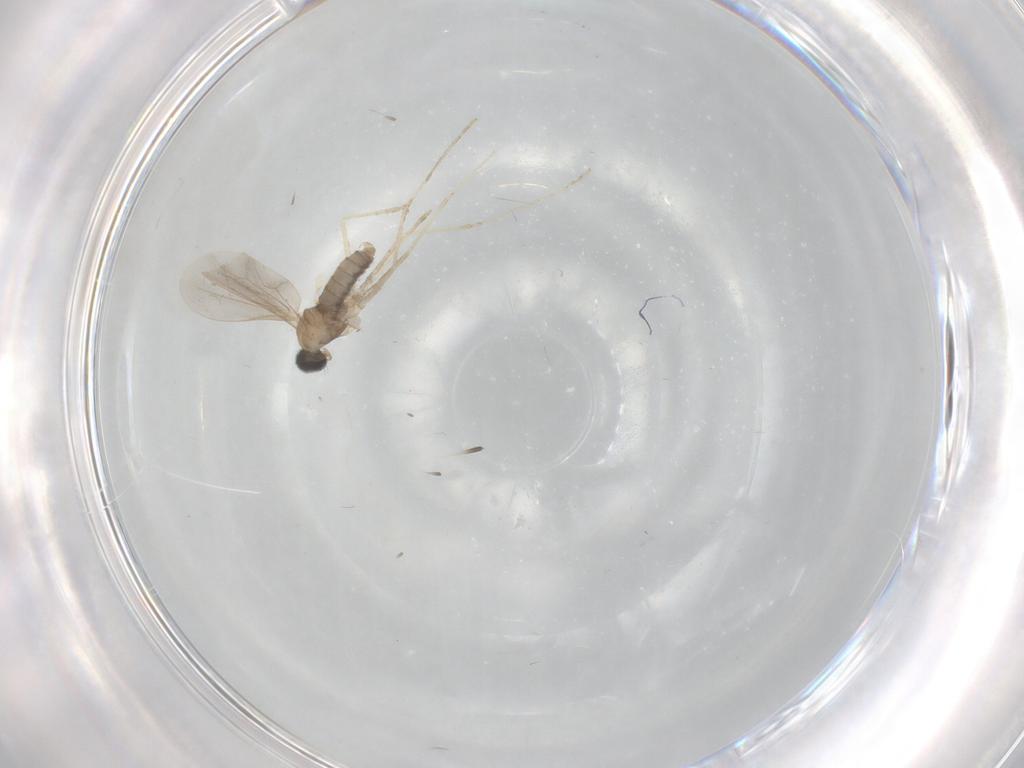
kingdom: Animalia
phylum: Arthropoda
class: Insecta
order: Diptera
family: Cecidomyiidae
